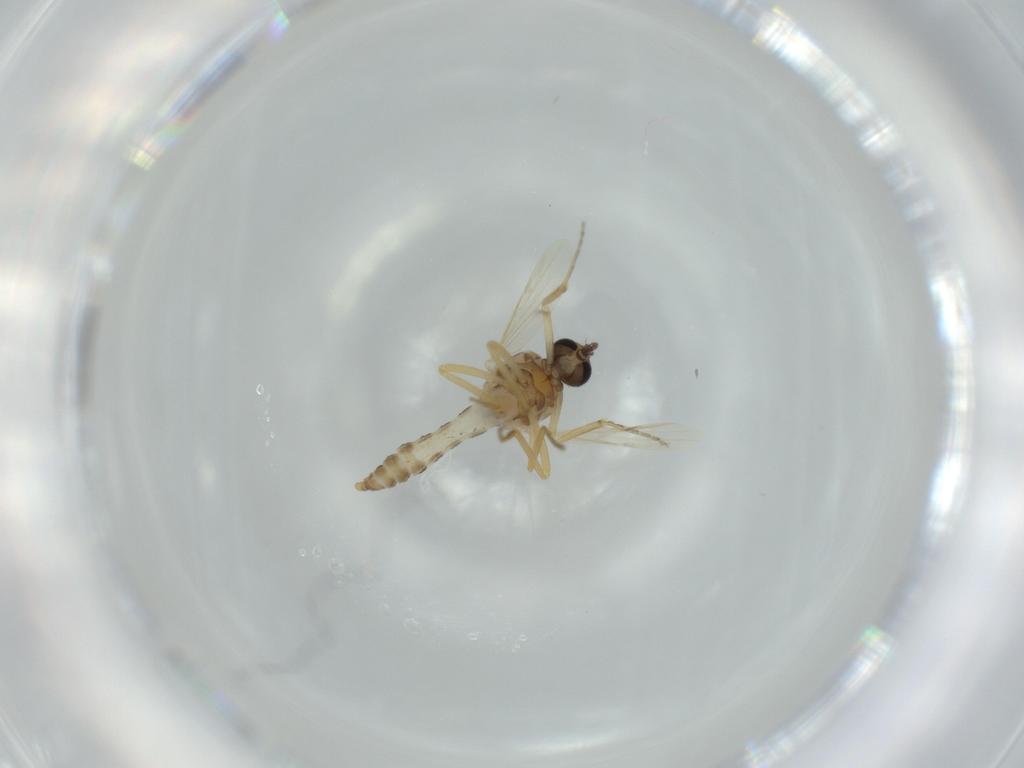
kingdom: Animalia
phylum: Arthropoda
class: Insecta
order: Diptera
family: Ceratopogonidae
